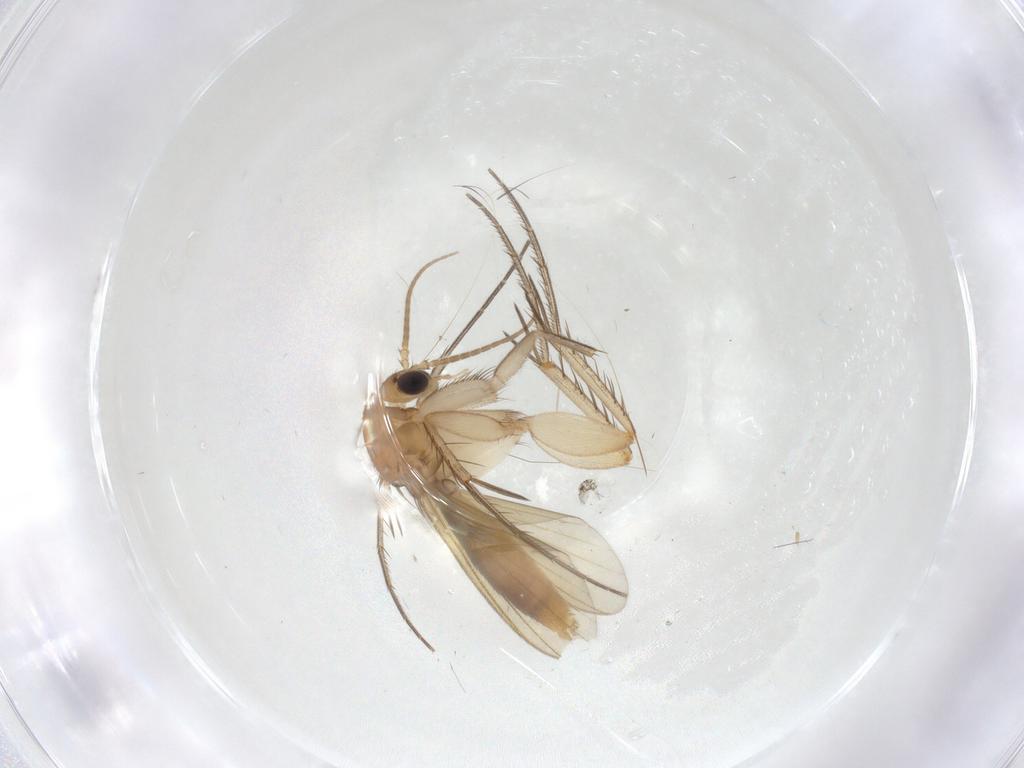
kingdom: Animalia
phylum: Arthropoda
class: Insecta
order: Diptera
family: Mycetophilidae
